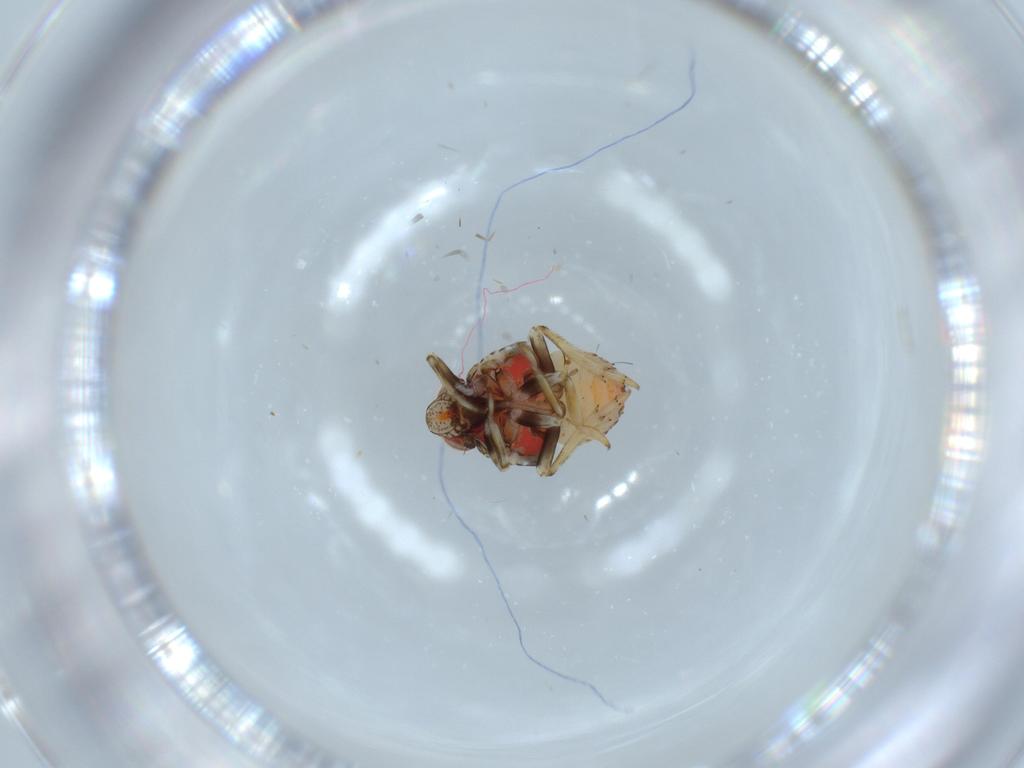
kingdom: Animalia
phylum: Arthropoda
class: Insecta
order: Hemiptera
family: Issidae
